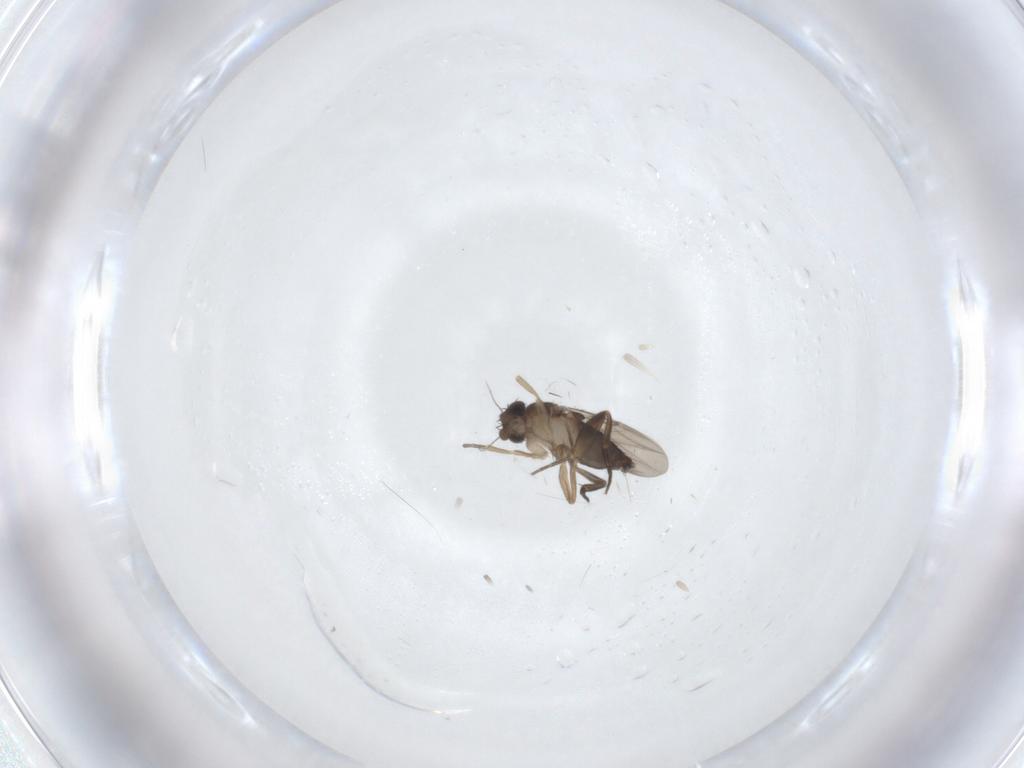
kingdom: Animalia
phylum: Arthropoda
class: Insecta
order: Diptera
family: Phoridae
